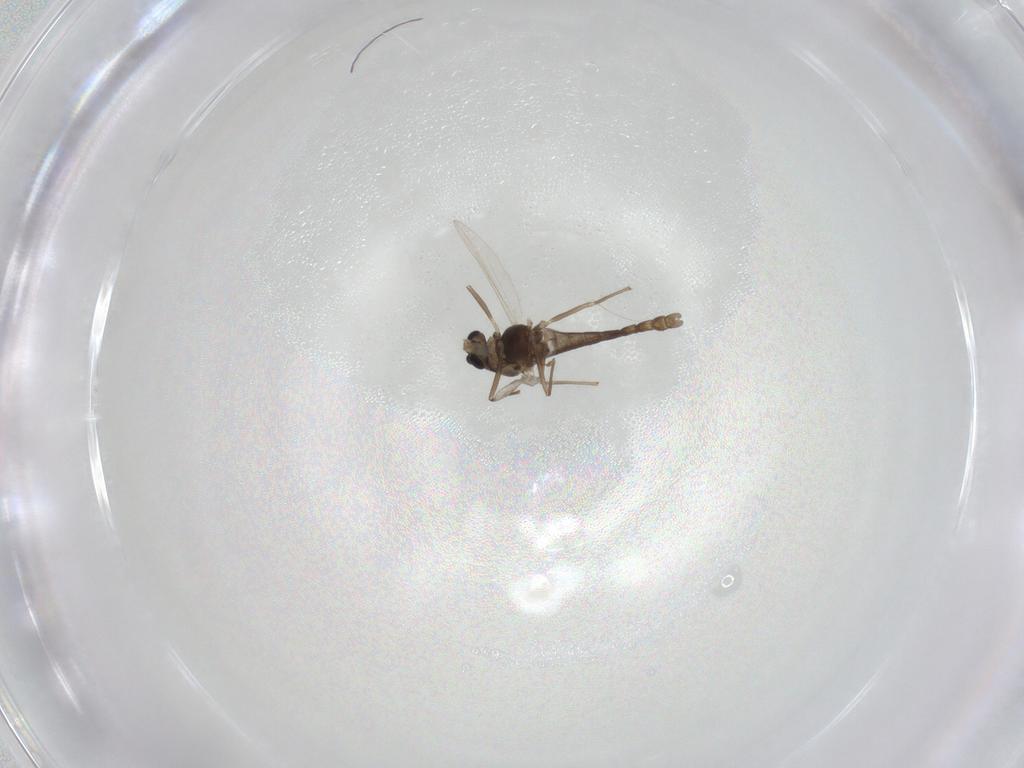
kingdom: Animalia
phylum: Arthropoda
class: Insecta
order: Diptera
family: Chironomidae
